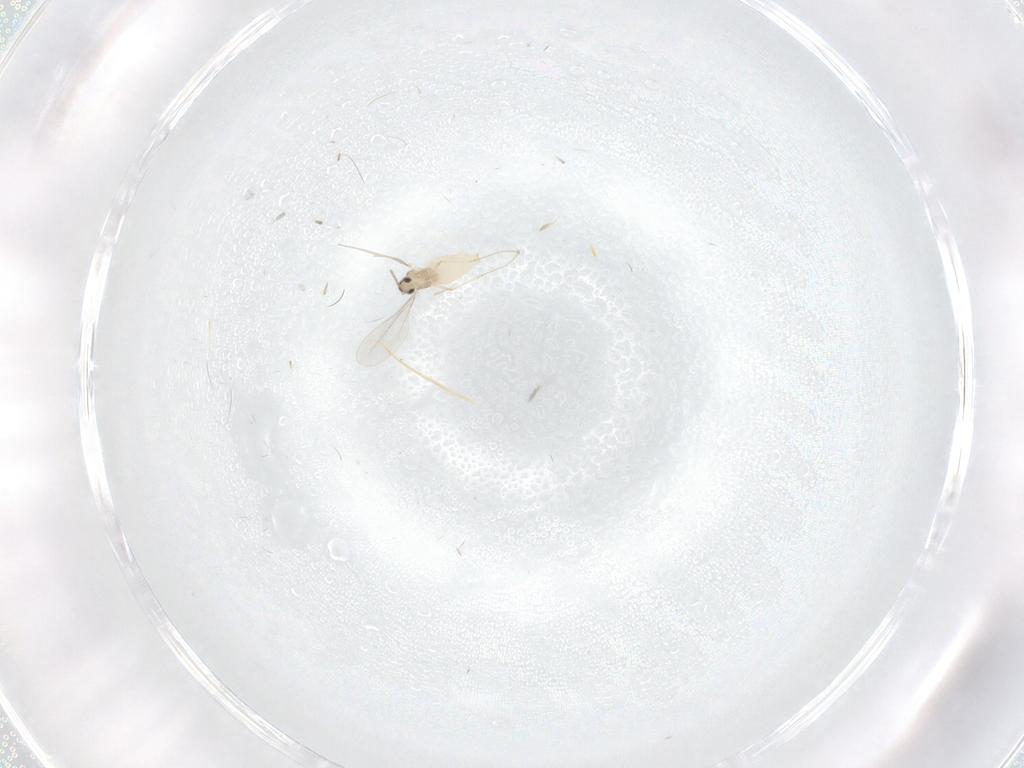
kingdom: Animalia
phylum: Arthropoda
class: Insecta
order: Diptera
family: Cecidomyiidae
